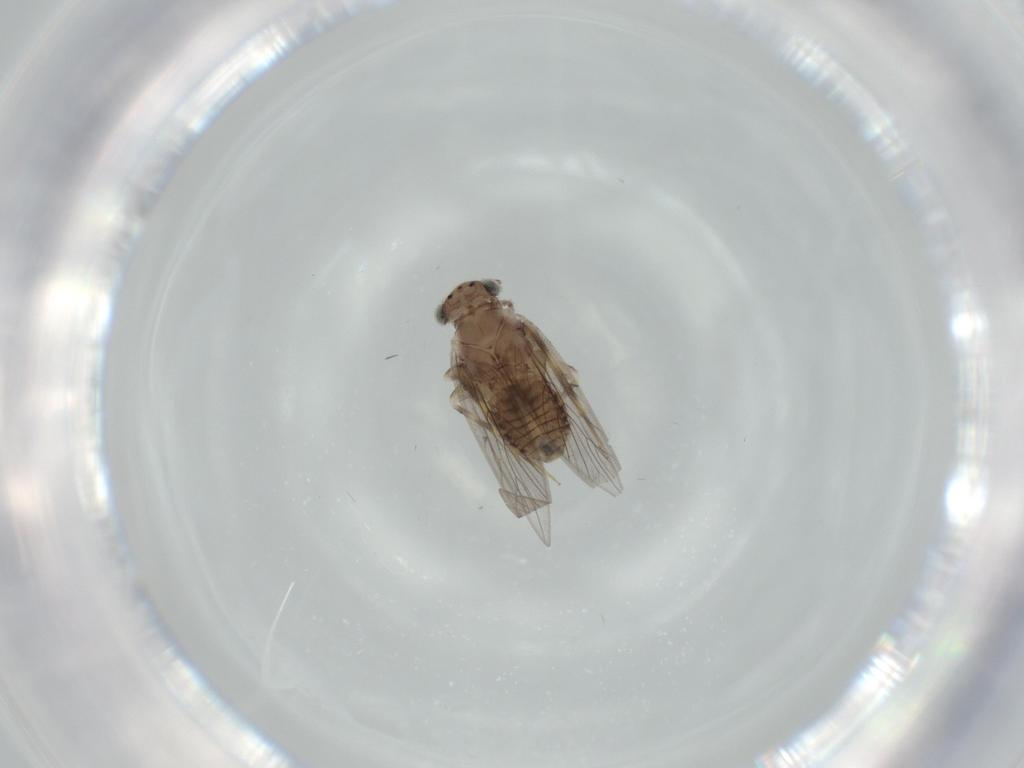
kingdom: Animalia
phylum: Arthropoda
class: Insecta
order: Psocodea
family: Lepidopsocidae
